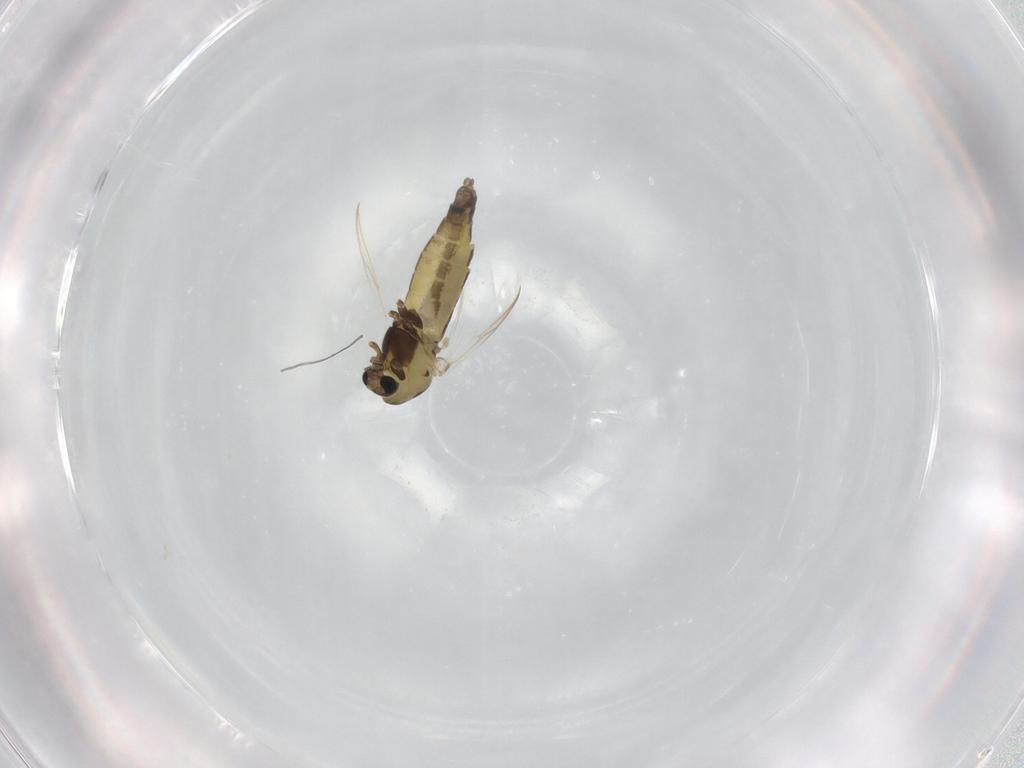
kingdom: Animalia
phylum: Arthropoda
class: Insecta
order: Diptera
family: Chironomidae
